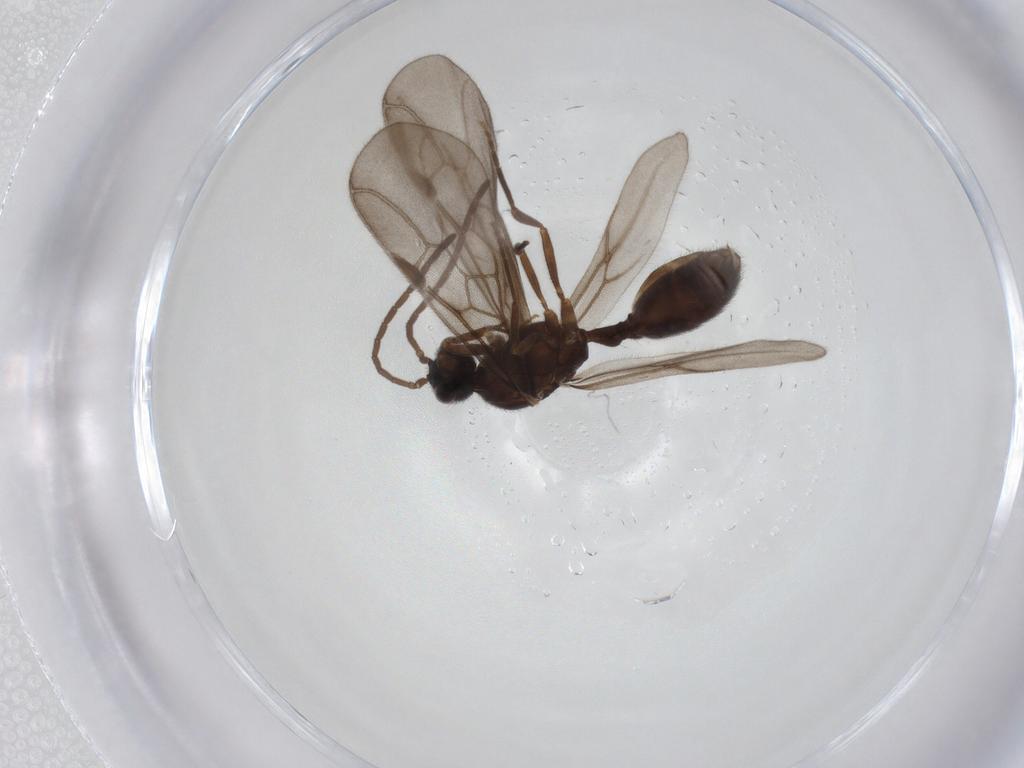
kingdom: Animalia
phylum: Arthropoda
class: Insecta
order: Hymenoptera
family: Formicidae
